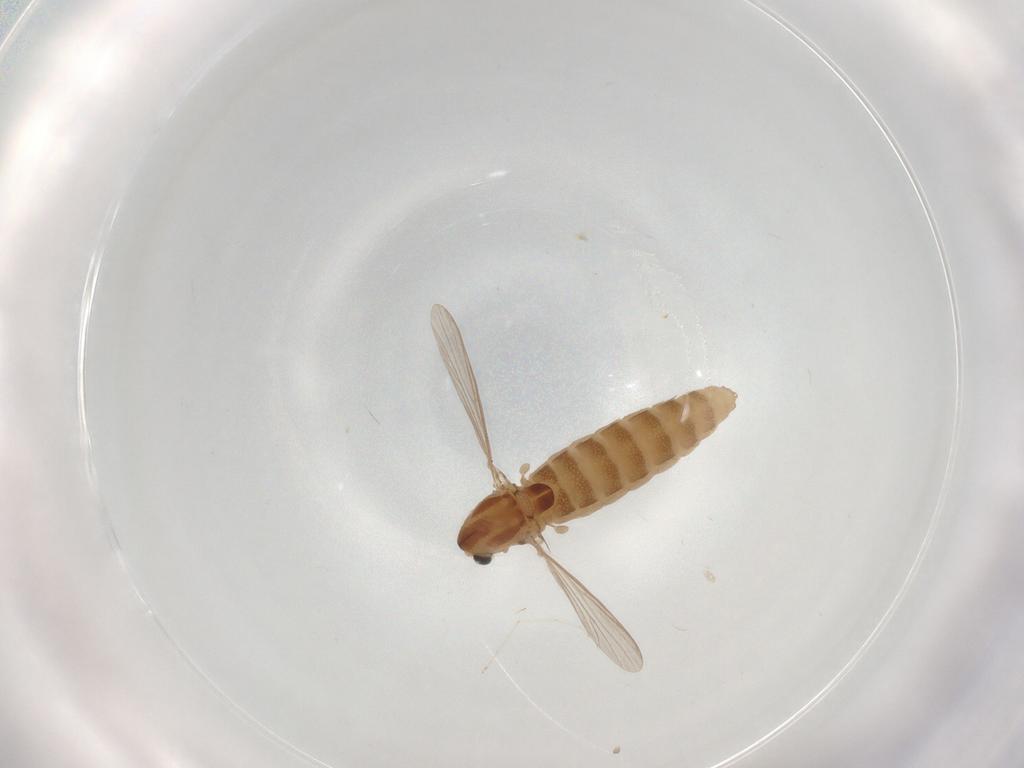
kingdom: Animalia
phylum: Arthropoda
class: Insecta
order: Diptera
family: Chironomidae
